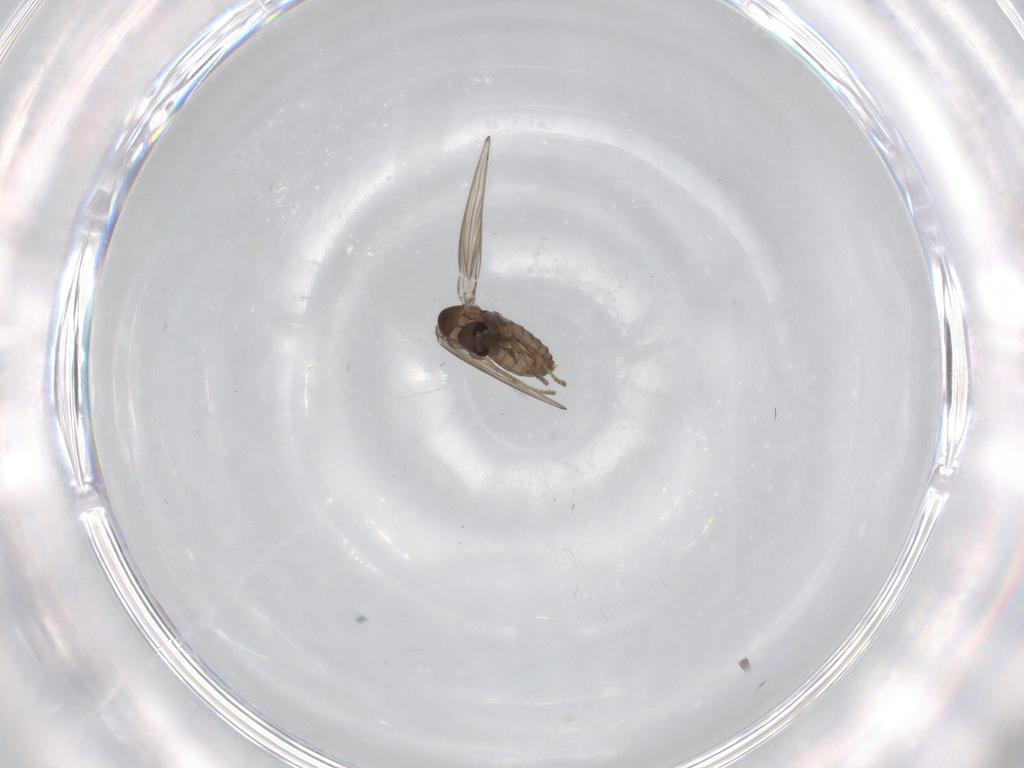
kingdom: Animalia
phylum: Arthropoda
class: Insecta
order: Diptera
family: Psychodidae
